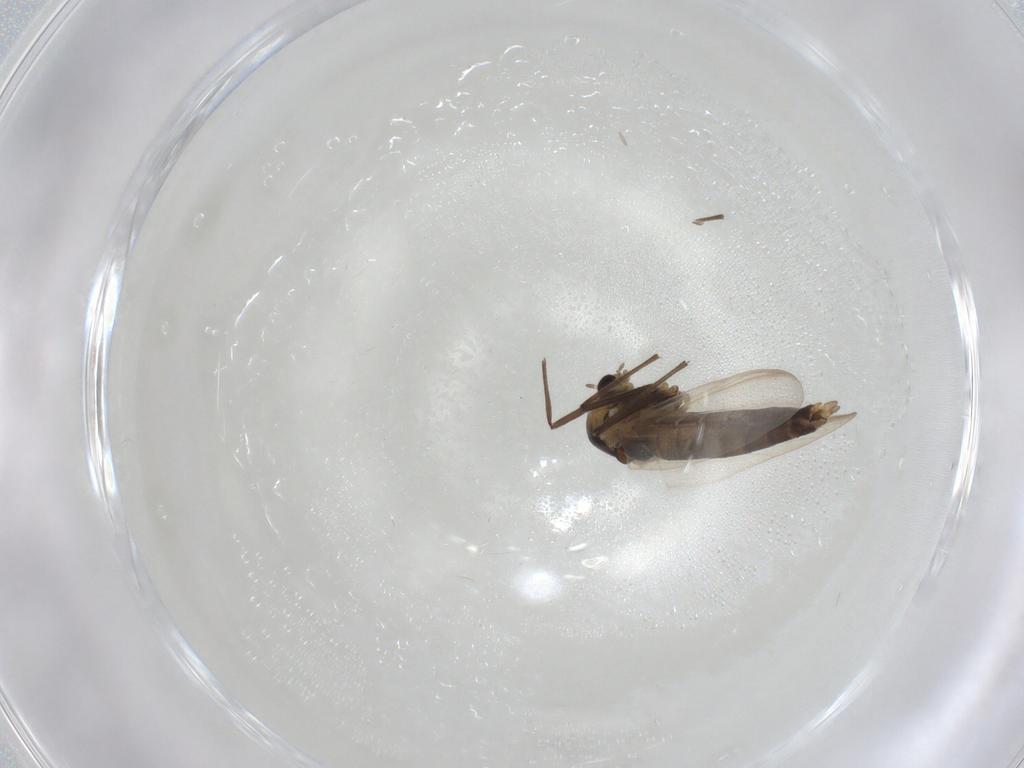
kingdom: Animalia
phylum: Arthropoda
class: Insecta
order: Diptera
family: Chironomidae
